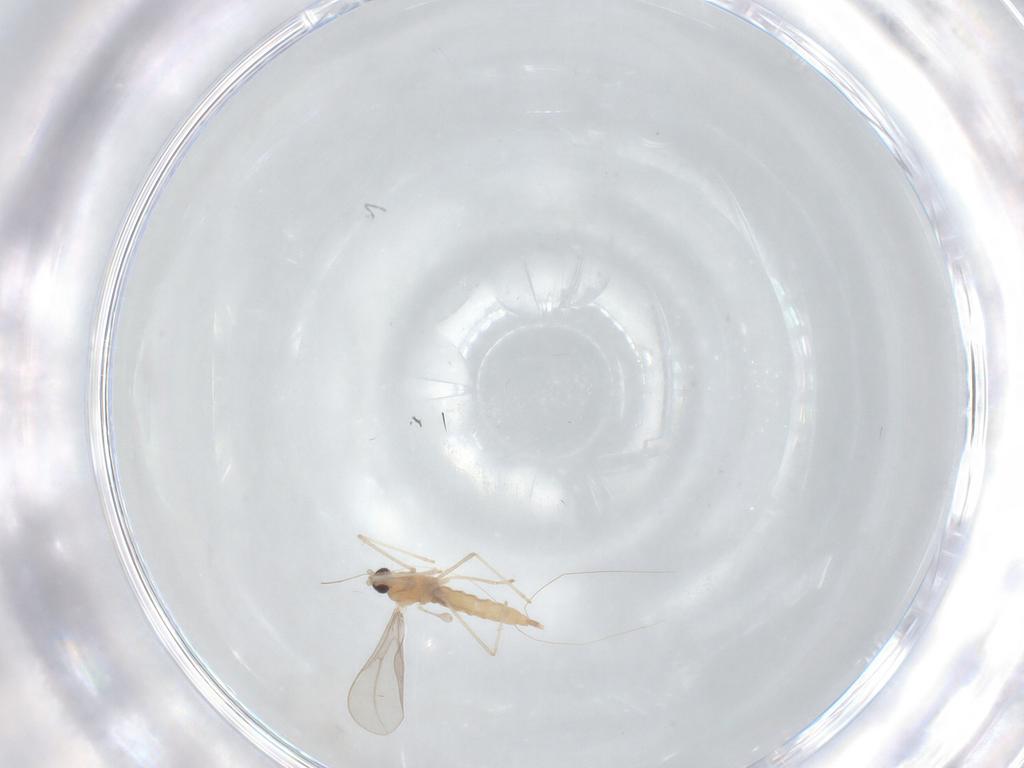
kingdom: Animalia
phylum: Arthropoda
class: Insecta
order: Diptera
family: Cecidomyiidae
